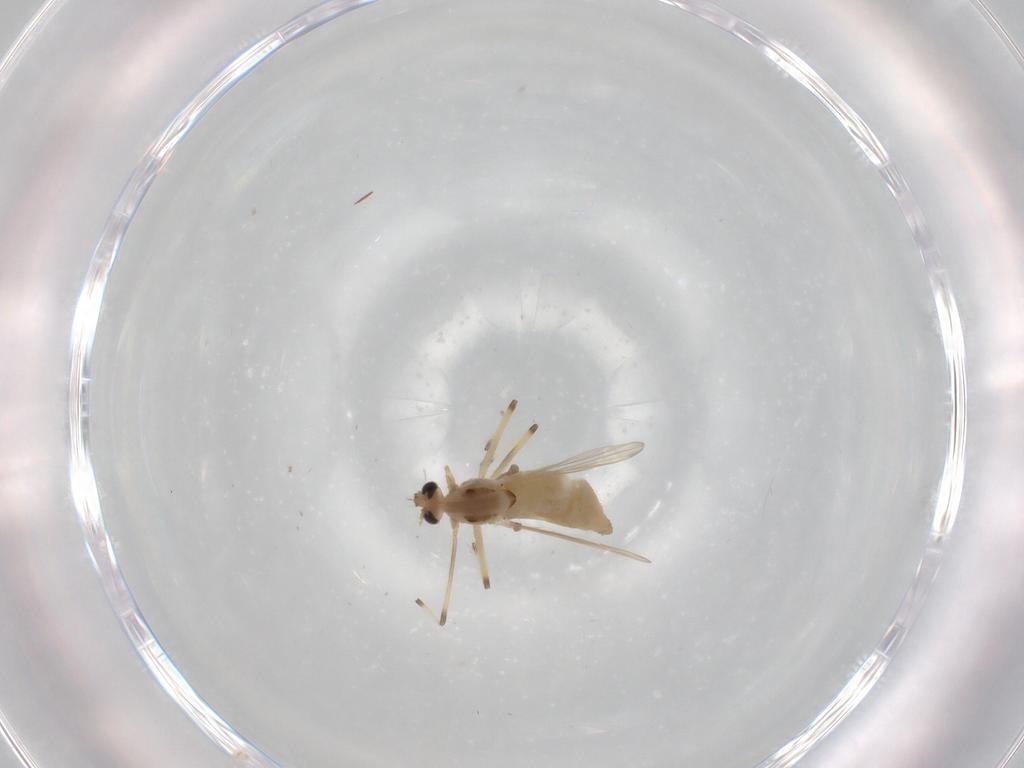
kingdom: Animalia
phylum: Arthropoda
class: Insecta
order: Diptera
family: Chironomidae
